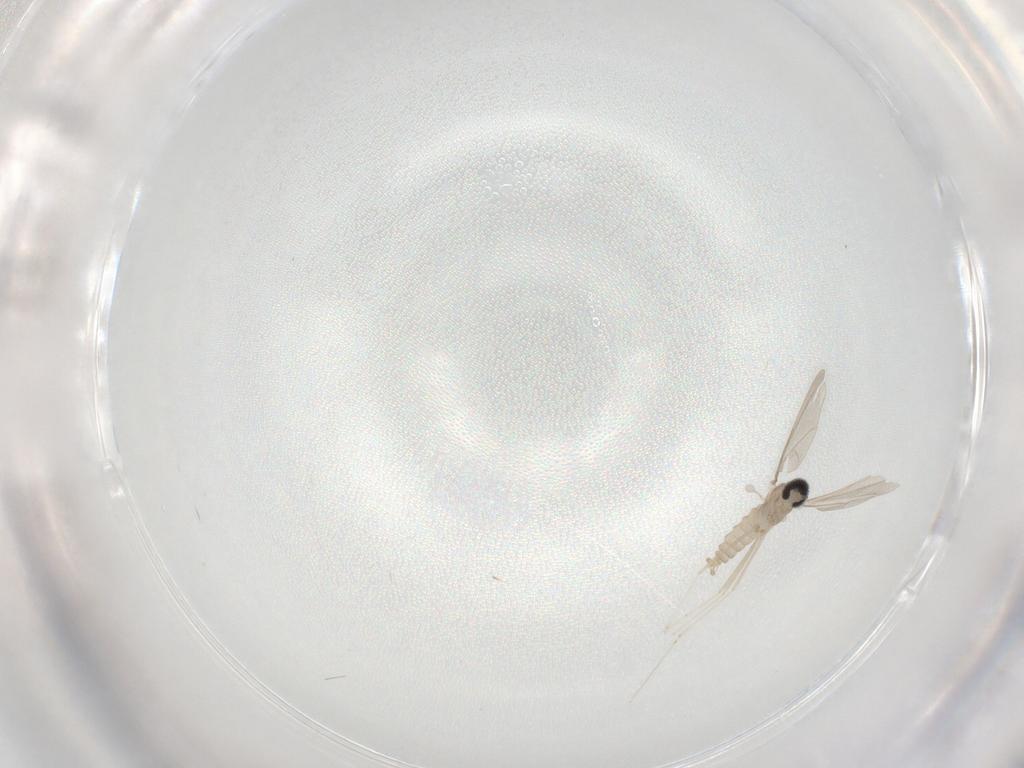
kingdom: Animalia
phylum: Arthropoda
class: Insecta
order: Diptera
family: Cecidomyiidae
